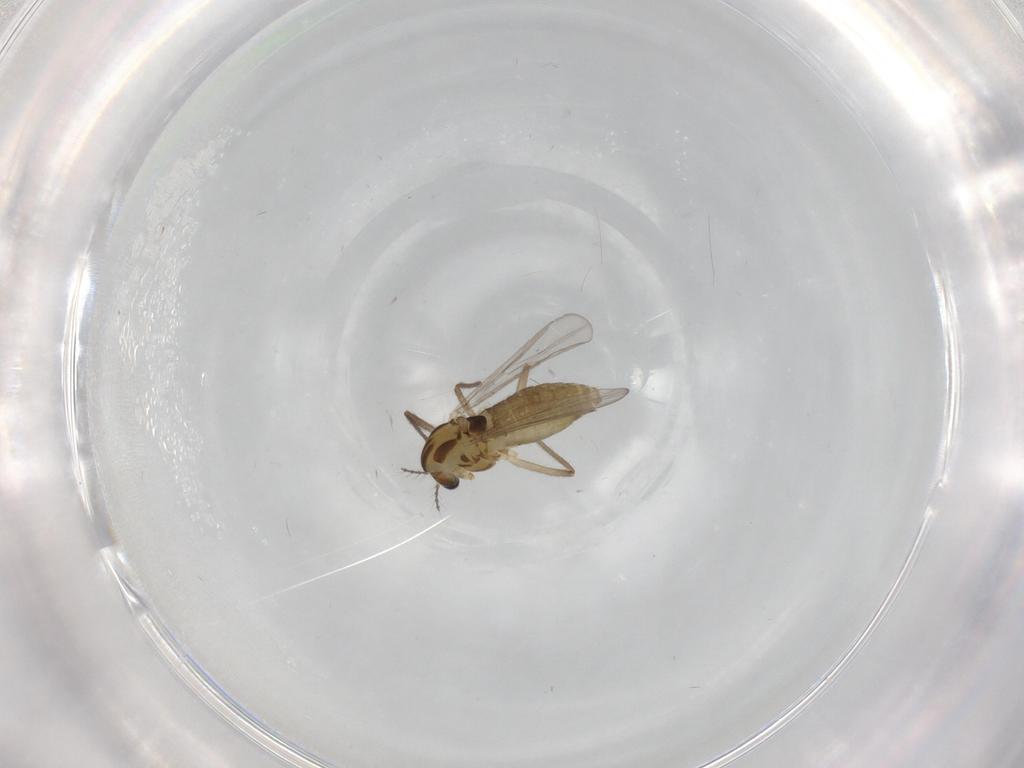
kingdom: Animalia
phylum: Arthropoda
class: Insecta
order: Diptera
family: Chironomidae
